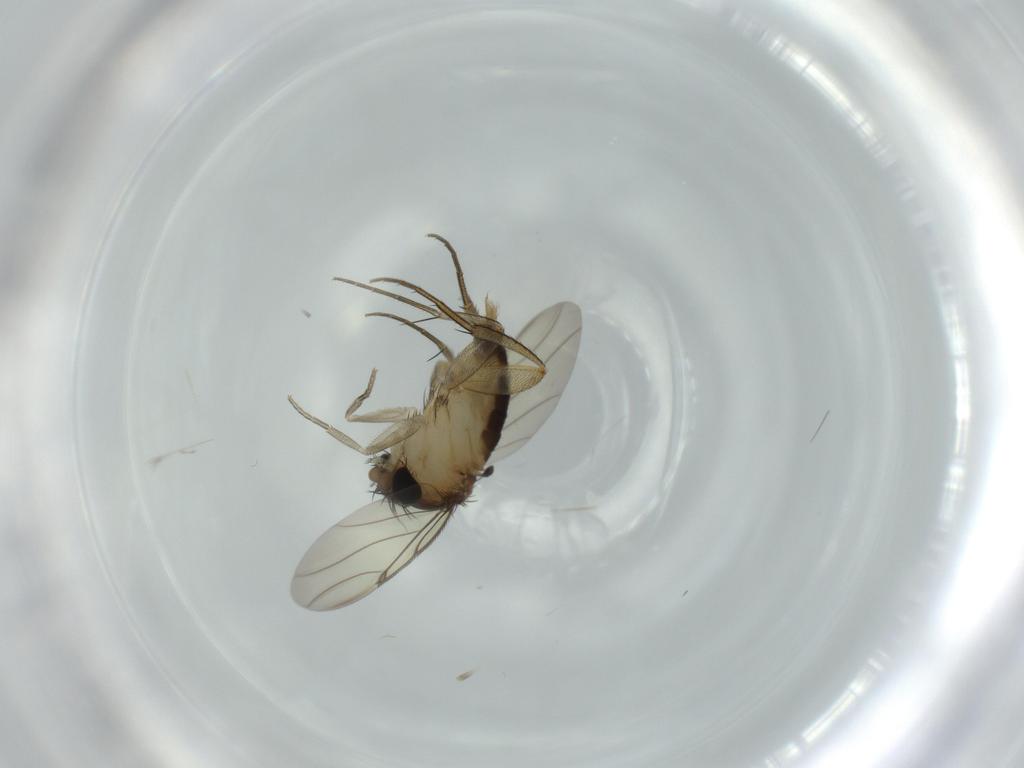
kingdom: Animalia
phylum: Arthropoda
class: Insecta
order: Diptera
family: Phoridae
